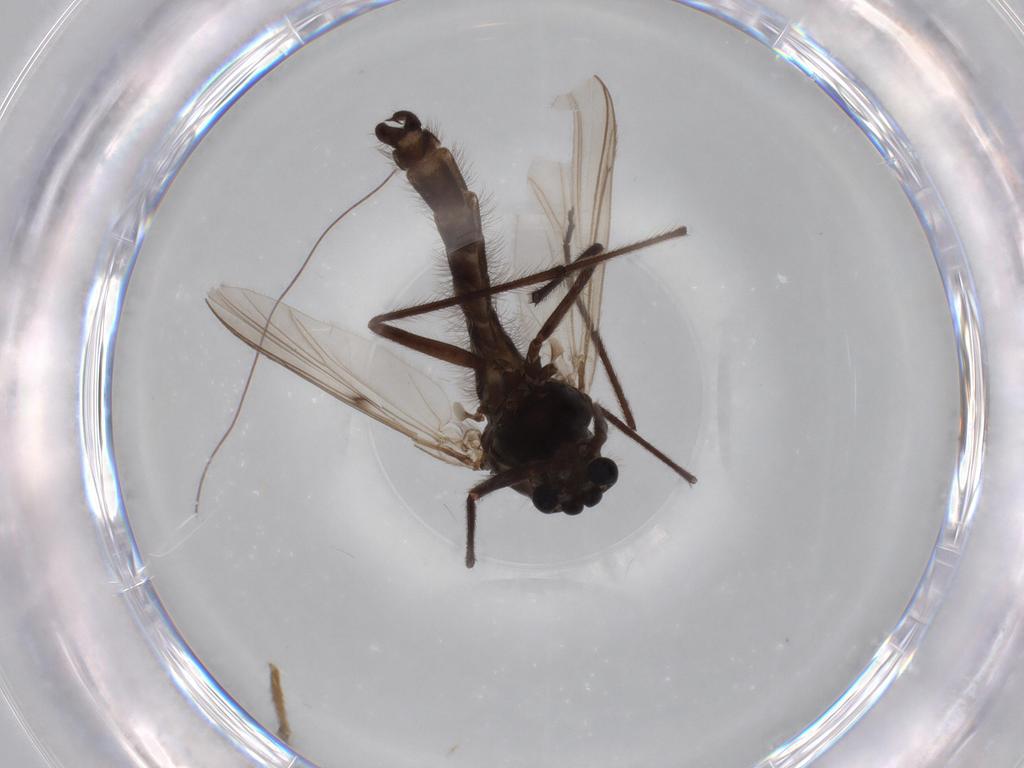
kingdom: Animalia
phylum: Arthropoda
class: Insecta
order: Diptera
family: Chironomidae
